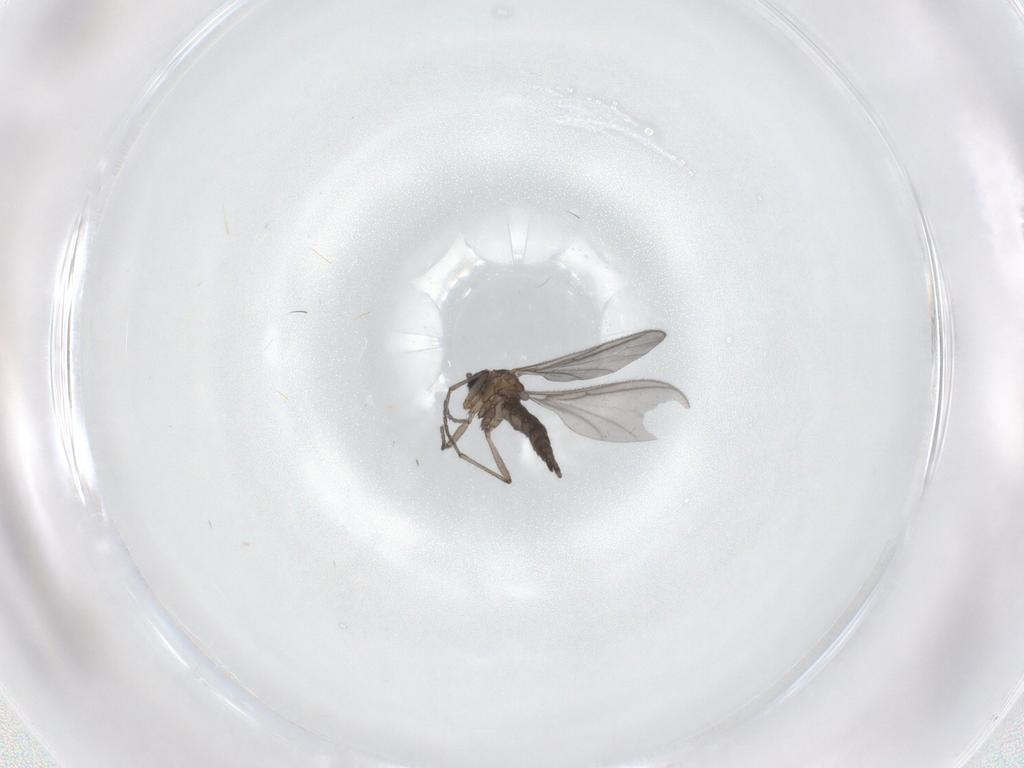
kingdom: Animalia
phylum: Arthropoda
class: Insecta
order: Diptera
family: Sciaridae
